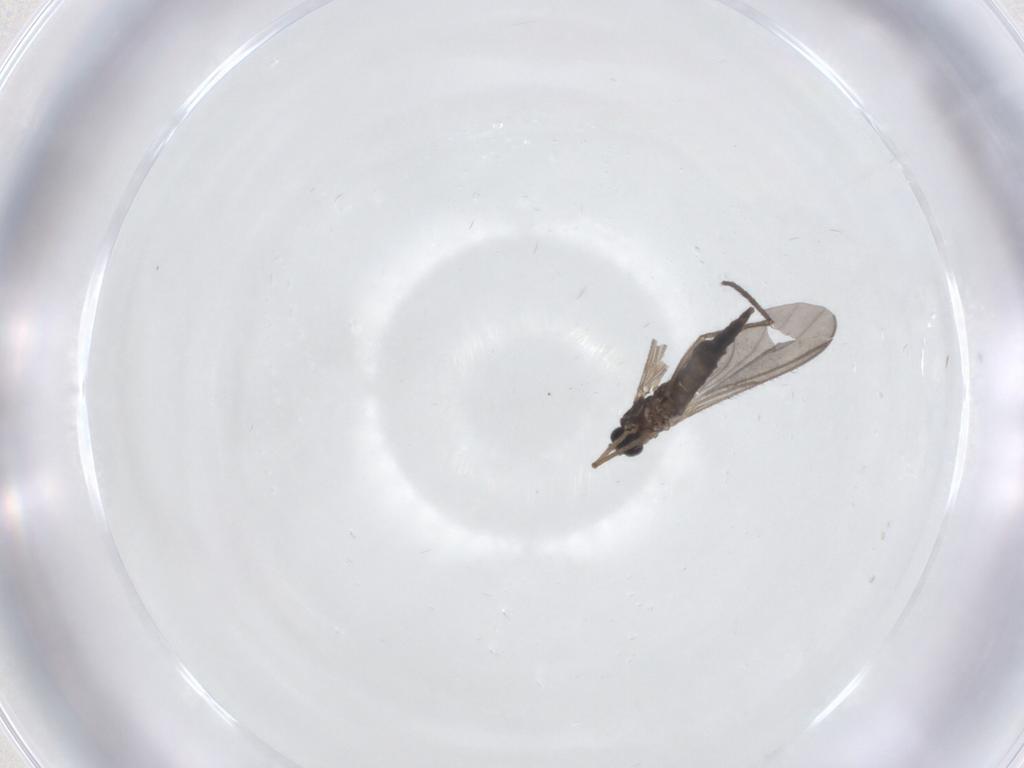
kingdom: Animalia
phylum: Arthropoda
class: Insecta
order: Diptera
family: Sciaridae
